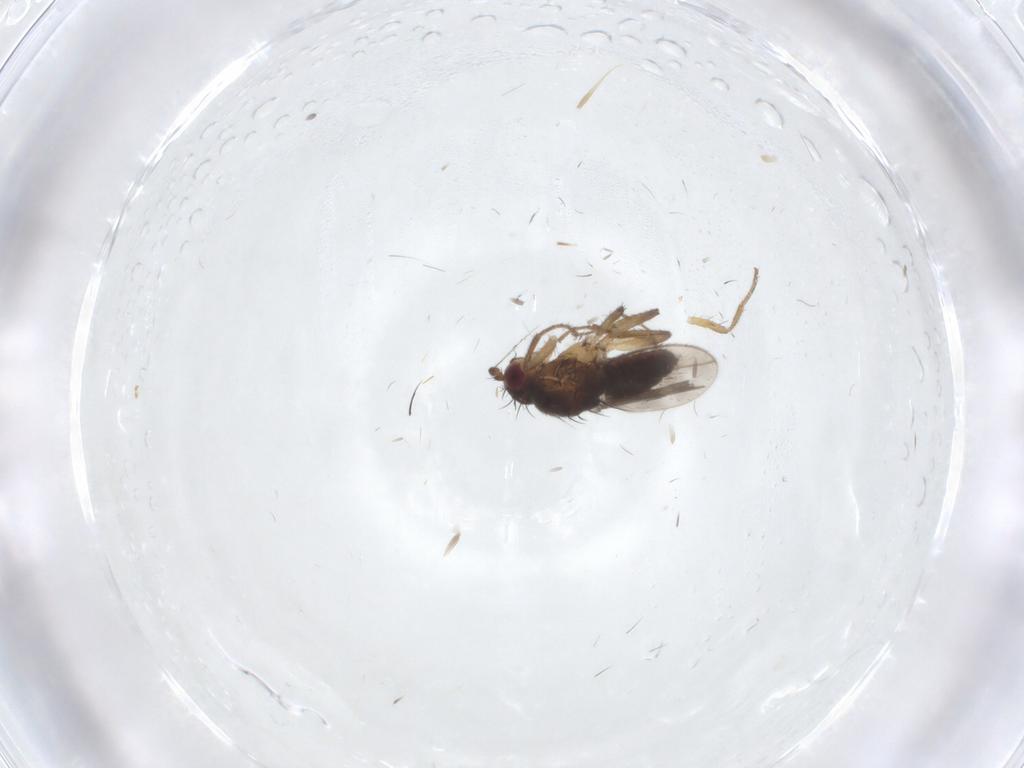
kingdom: Animalia
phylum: Arthropoda
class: Insecta
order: Diptera
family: Sphaeroceridae
